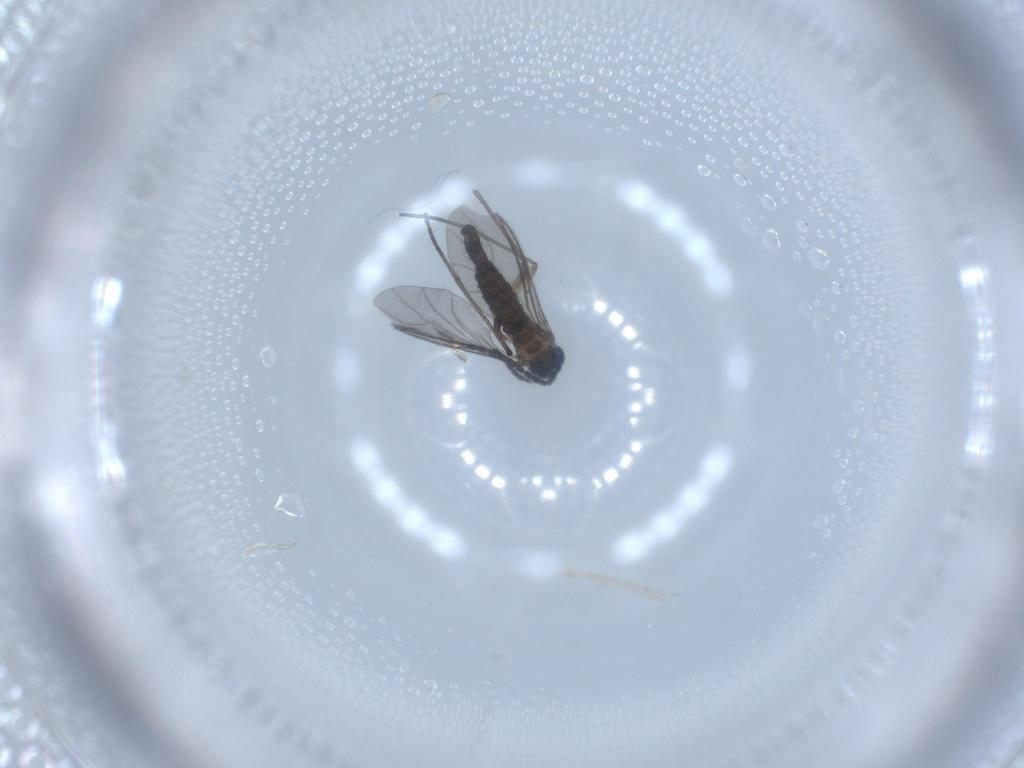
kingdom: Animalia
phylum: Arthropoda
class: Insecta
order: Diptera
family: Sciaridae
